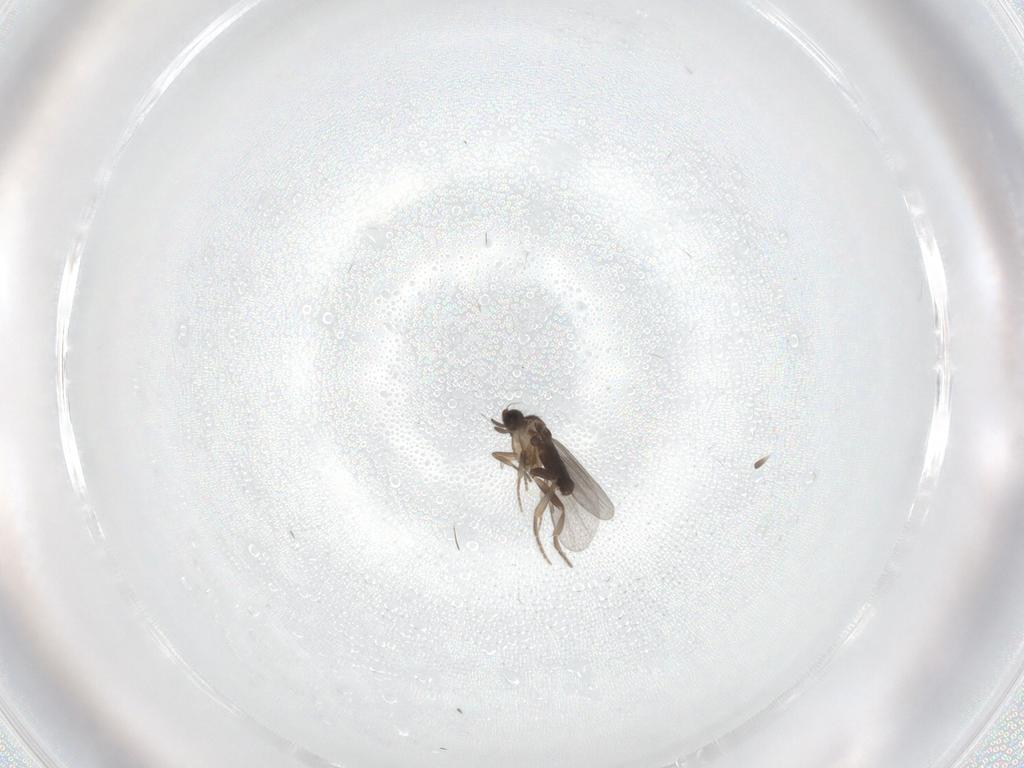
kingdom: Animalia
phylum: Arthropoda
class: Insecta
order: Diptera
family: Ceratopogonidae
